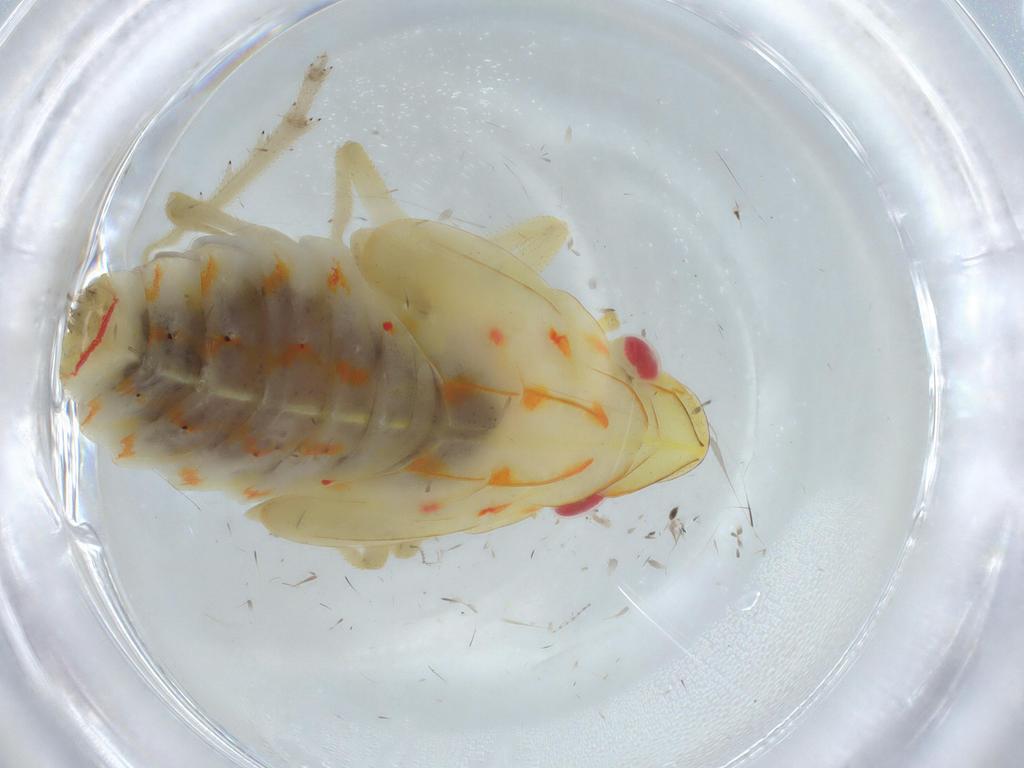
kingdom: Animalia
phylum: Arthropoda
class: Insecta
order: Hemiptera
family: Tropiduchidae
